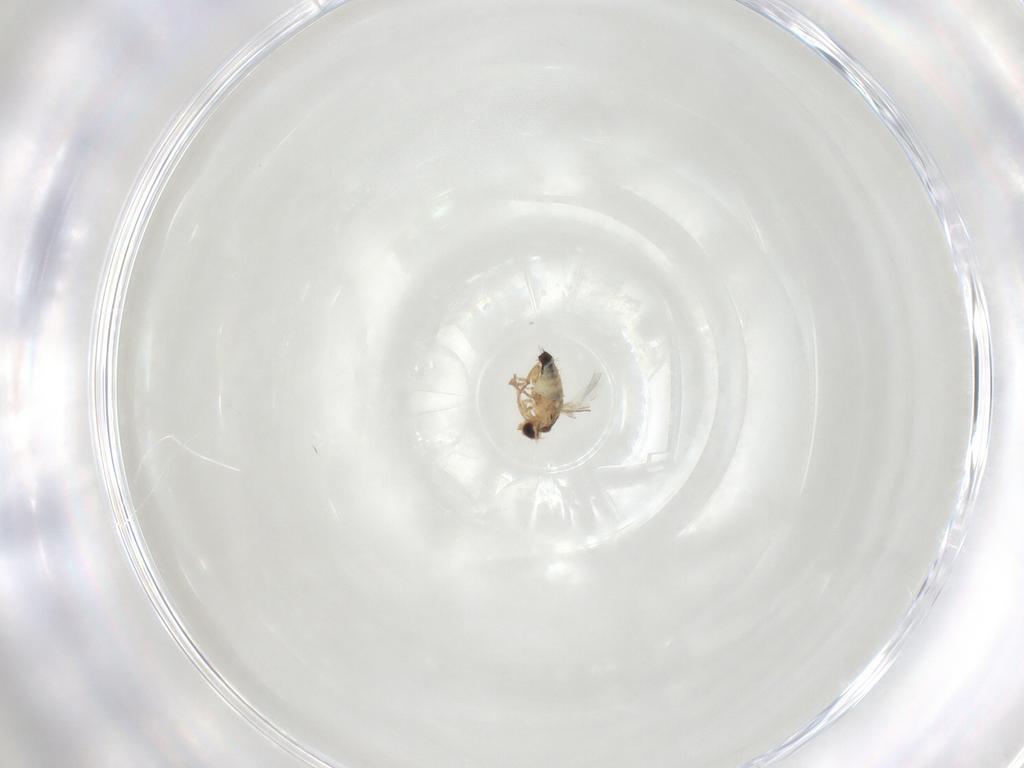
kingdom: Animalia
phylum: Arthropoda
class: Insecta
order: Diptera
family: Agromyzidae
